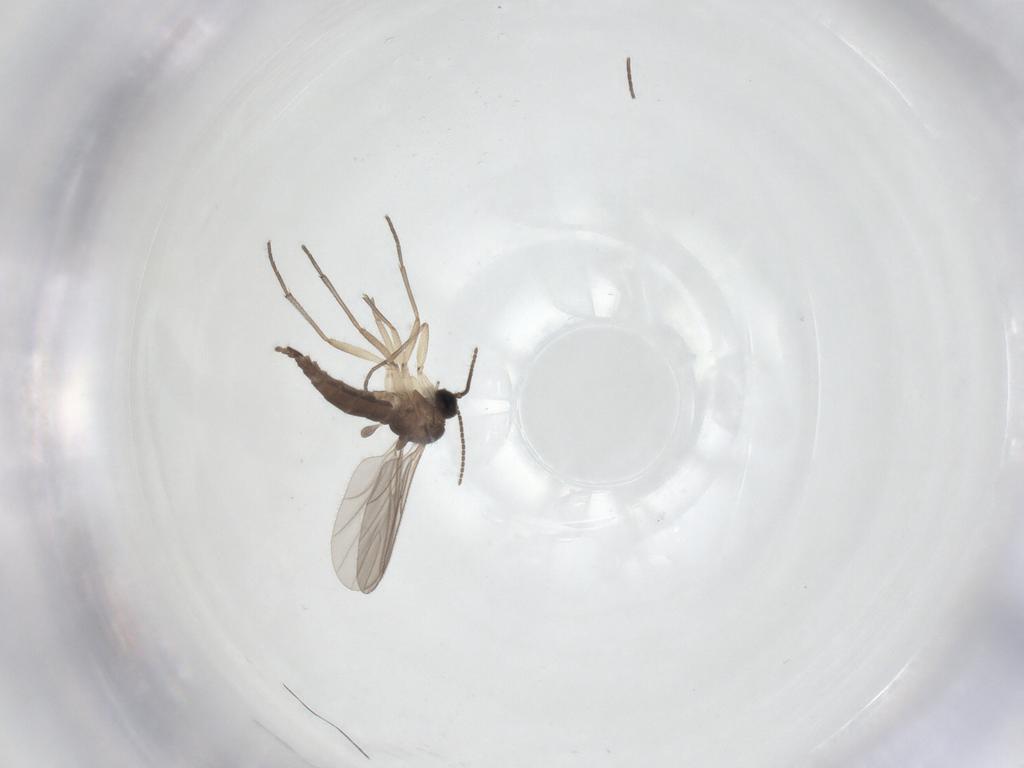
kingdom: Animalia
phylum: Arthropoda
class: Insecta
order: Diptera
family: Sciaridae
